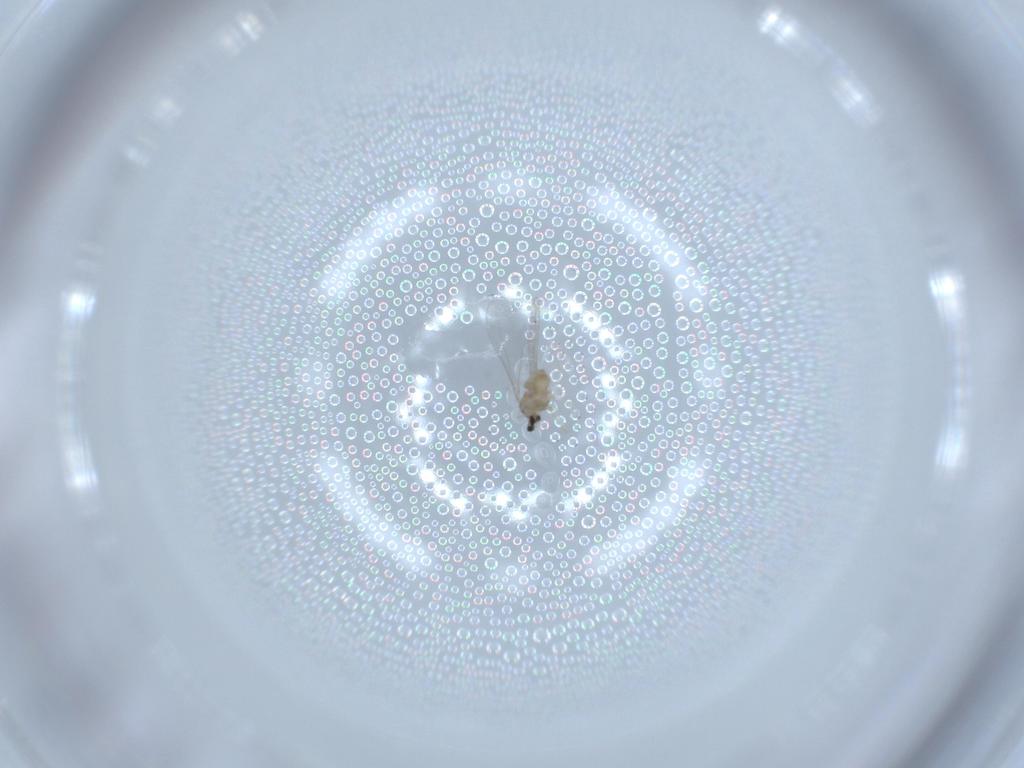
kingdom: Animalia
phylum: Arthropoda
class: Insecta
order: Diptera
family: Cecidomyiidae
